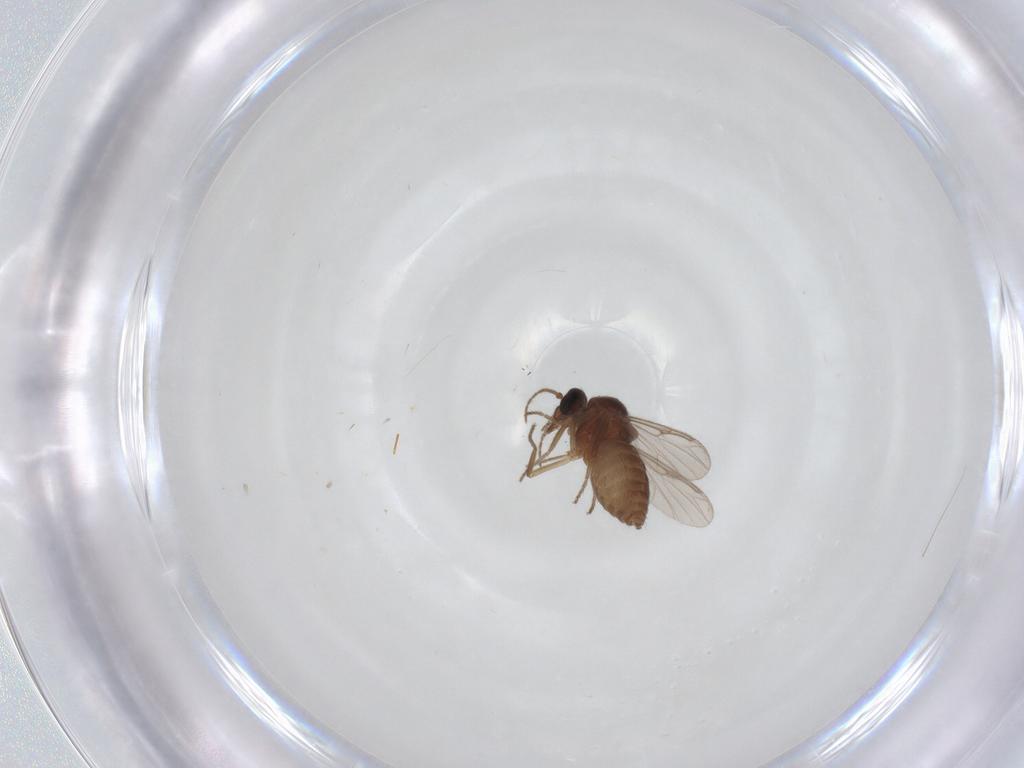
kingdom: Animalia
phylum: Arthropoda
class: Insecta
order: Diptera
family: Ceratopogonidae
